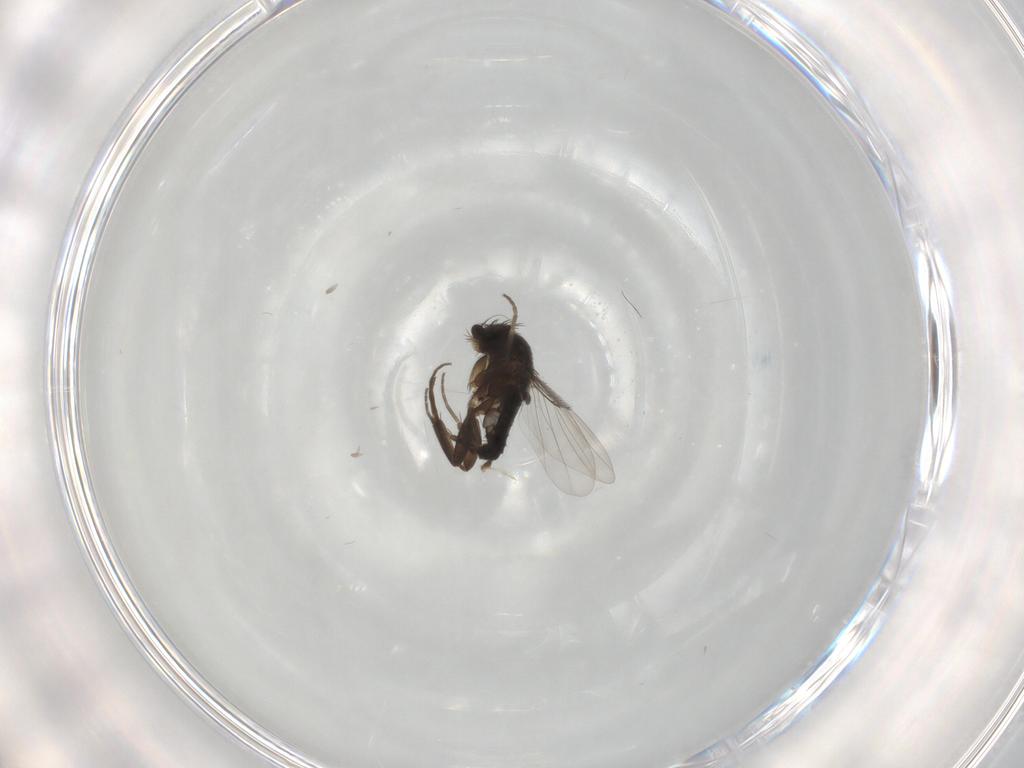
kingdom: Animalia
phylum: Arthropoda
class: Insecta
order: Diptera
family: Phoridae
